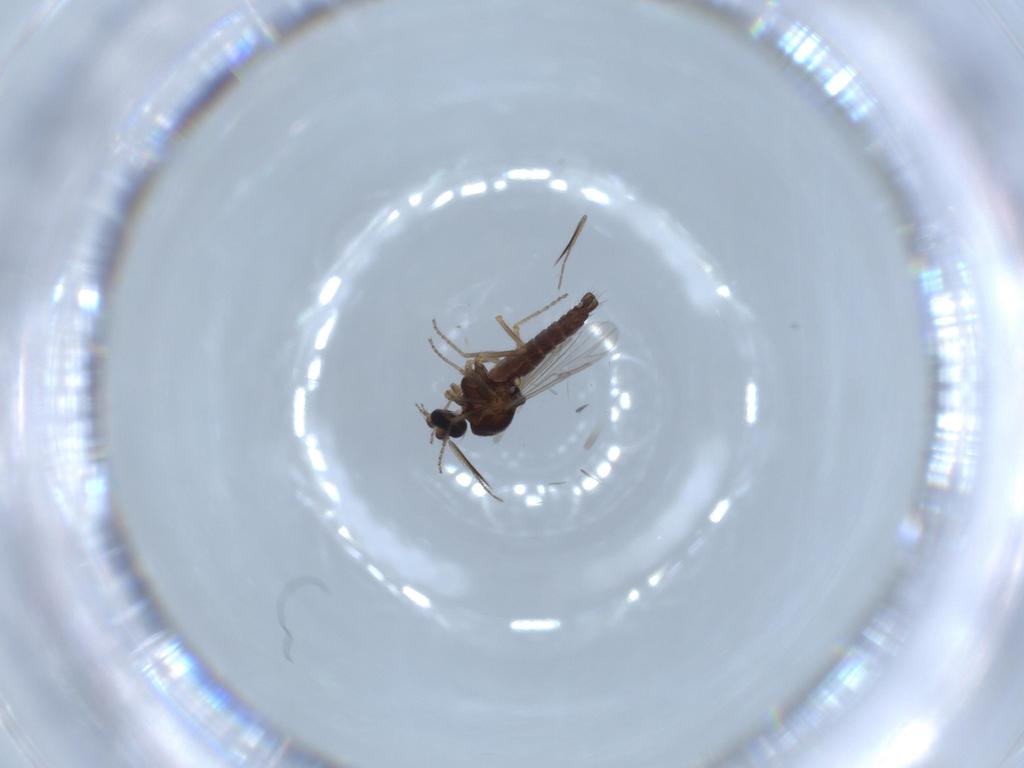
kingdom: Animalia
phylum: Arthropoda
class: Insecta
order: Diptera
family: Ceratopogonidae
